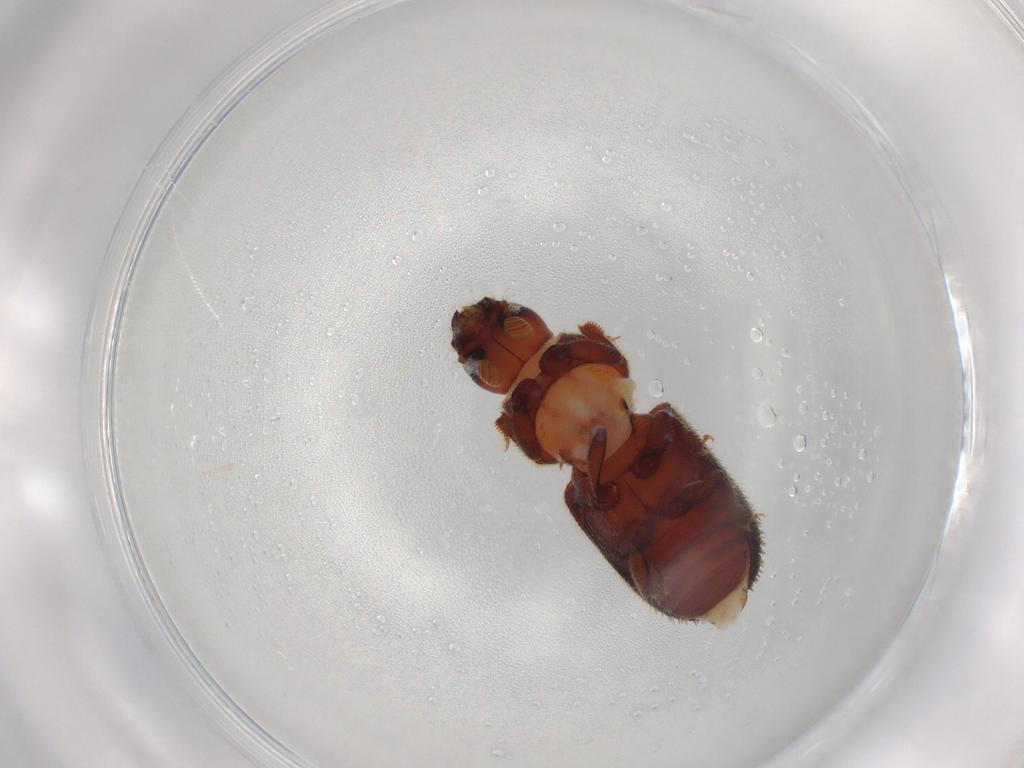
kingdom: Animalia
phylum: Arthropoda
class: Insecta
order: Coleoptera
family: Curculionidae
